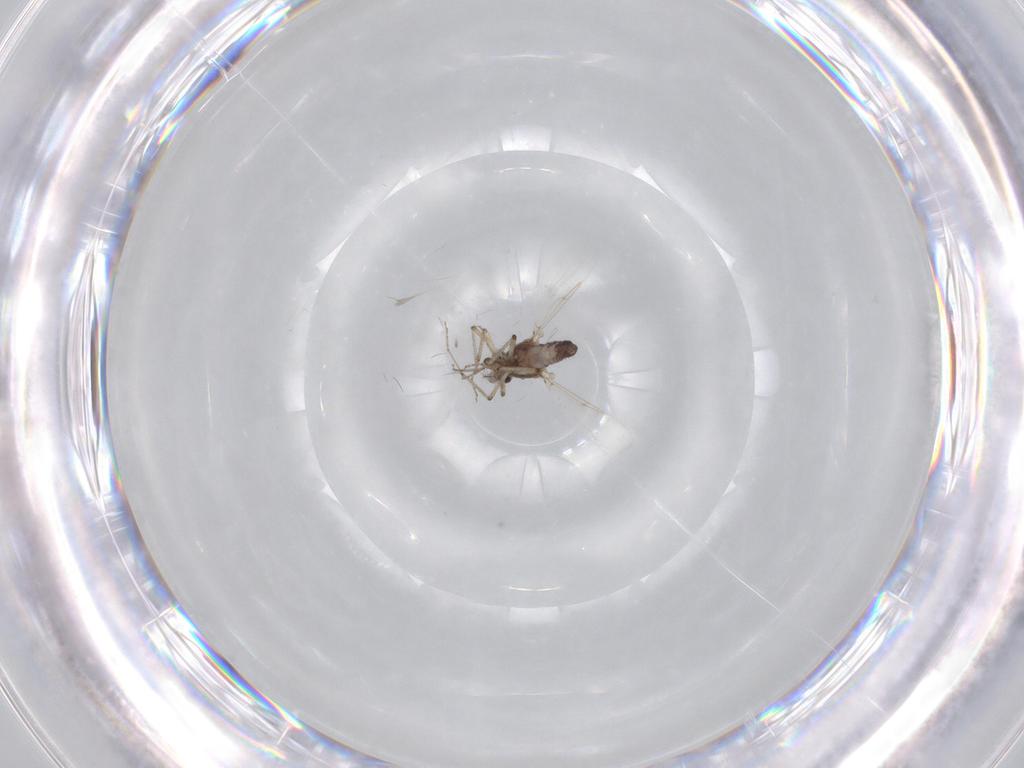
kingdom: Animalia
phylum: Arthropoda
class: Insecta
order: Diptera
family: Ceratopogonidae
